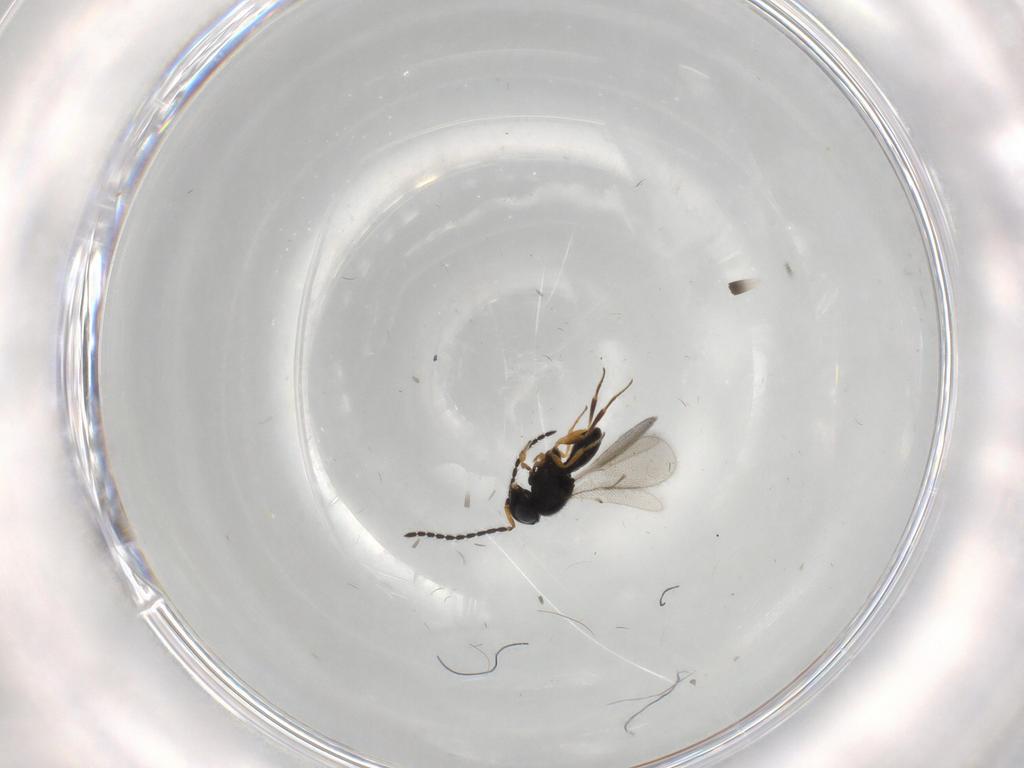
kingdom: Animalia
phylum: Arthropoda
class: Insecta
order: Hymenoptera
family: Scelionidae
